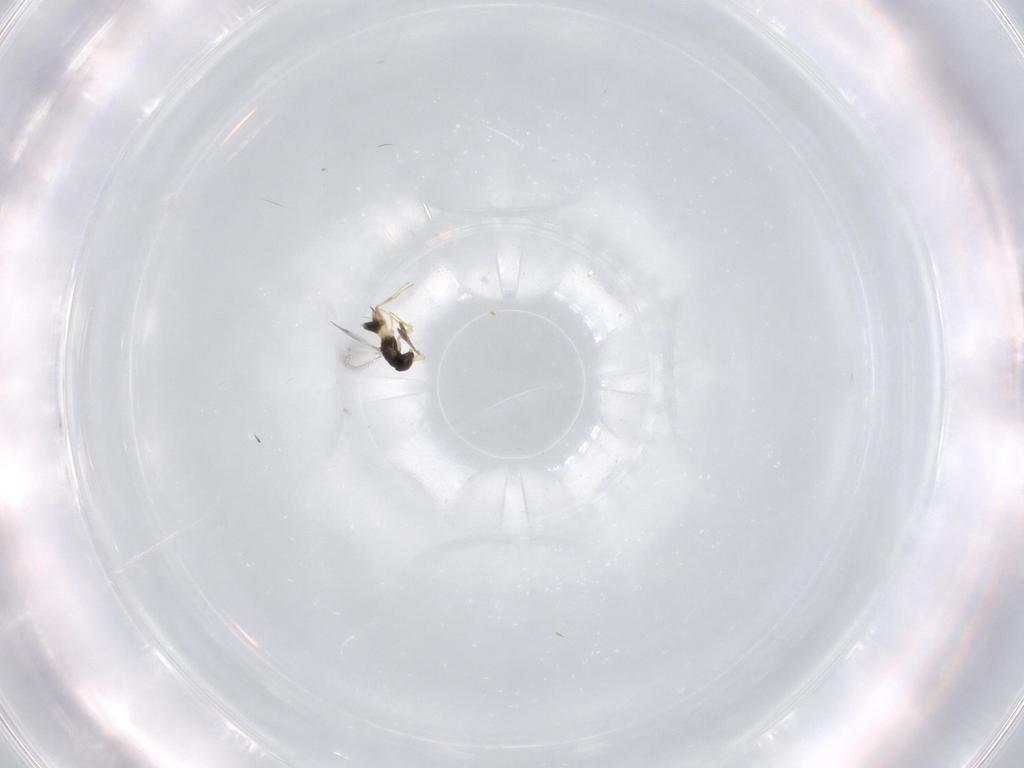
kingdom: Animalia
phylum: Arthropoda
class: Insecta
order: Hymenoptera
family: Mymaridae
